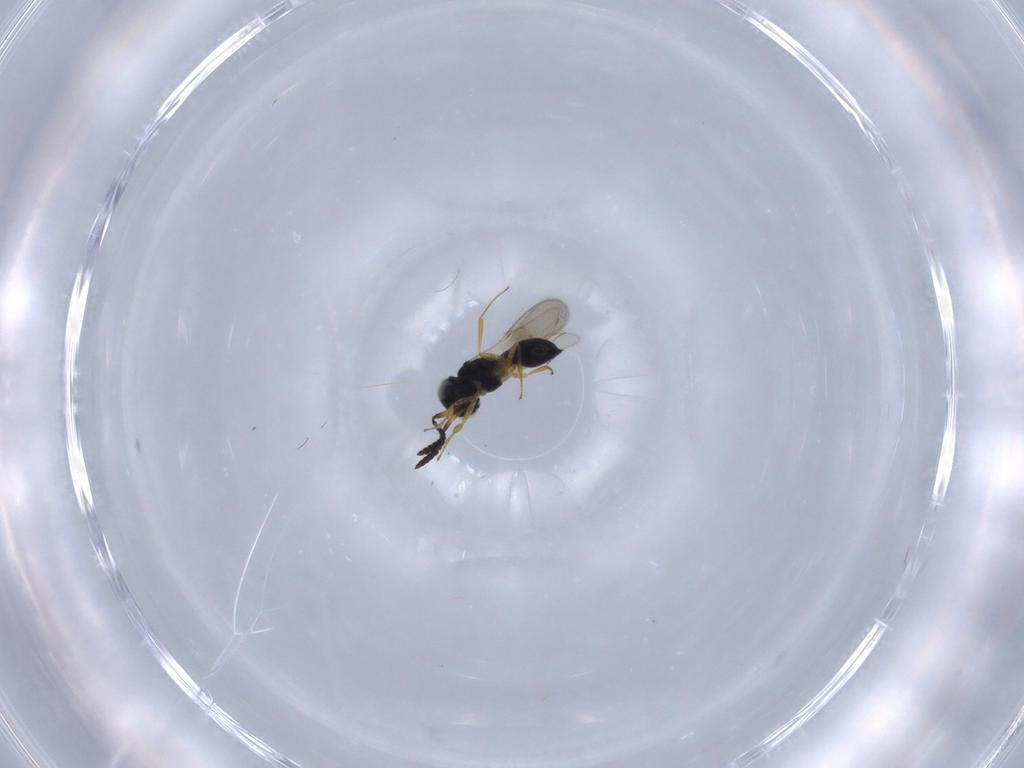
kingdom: Animalia
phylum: Arthropoda
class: Insecta
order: Hymenoptera
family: Scelionidae
